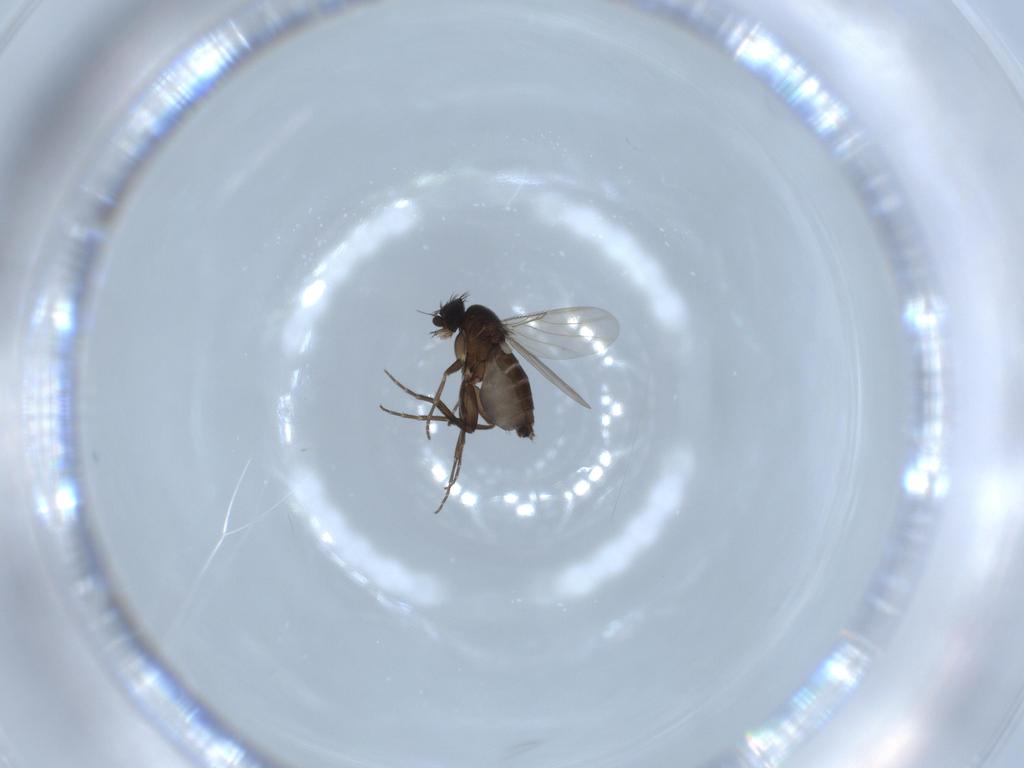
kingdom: Animalia
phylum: Arthropoda
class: Insecta
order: Diptera
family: Phoridae
